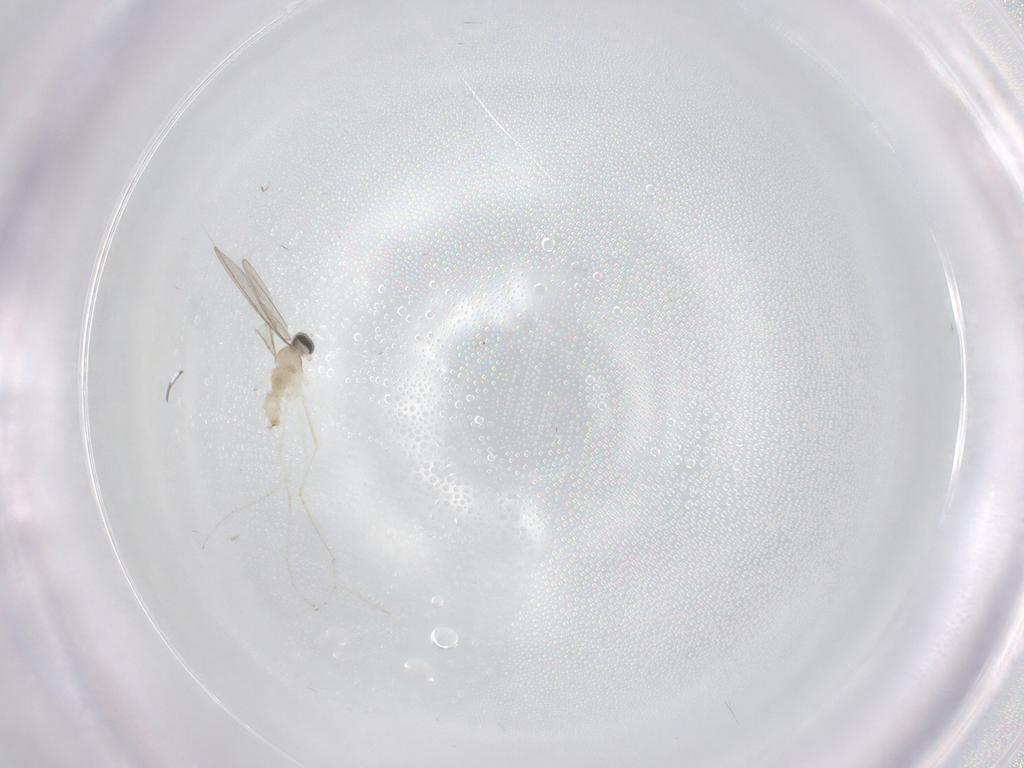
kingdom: Animalia
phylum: Arthropoda
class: Insecta
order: Diptera
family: Cecidomyiidae
